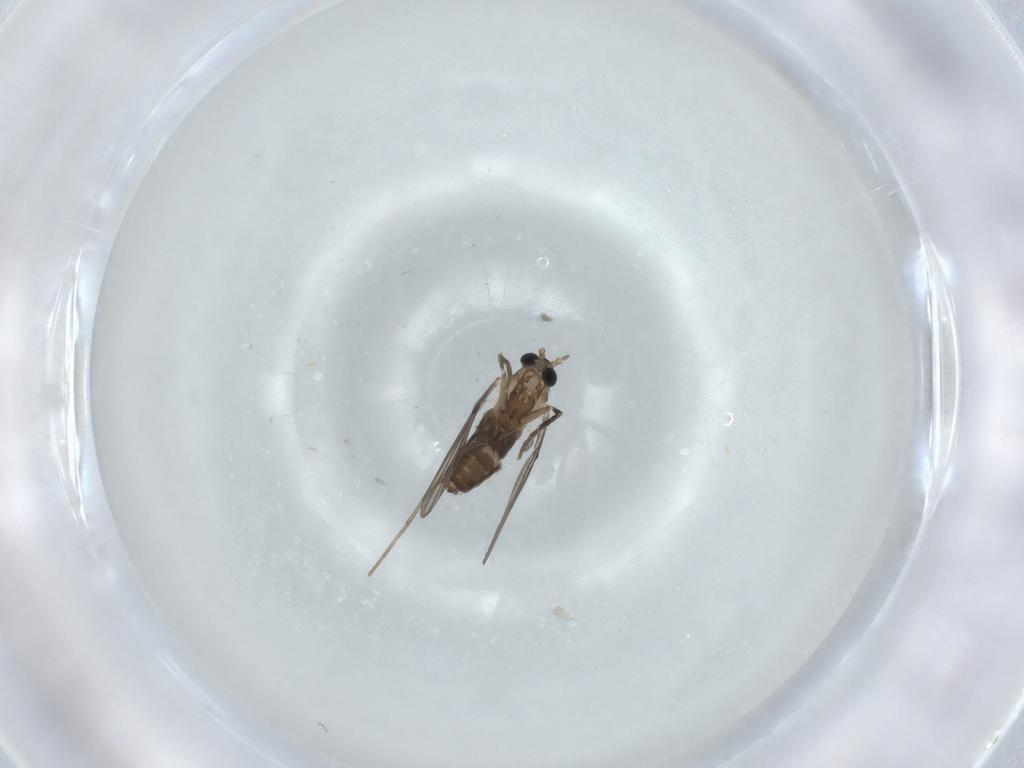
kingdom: Animalia
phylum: Arthropoda
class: Insecta
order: Diptera
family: Psychodidae
